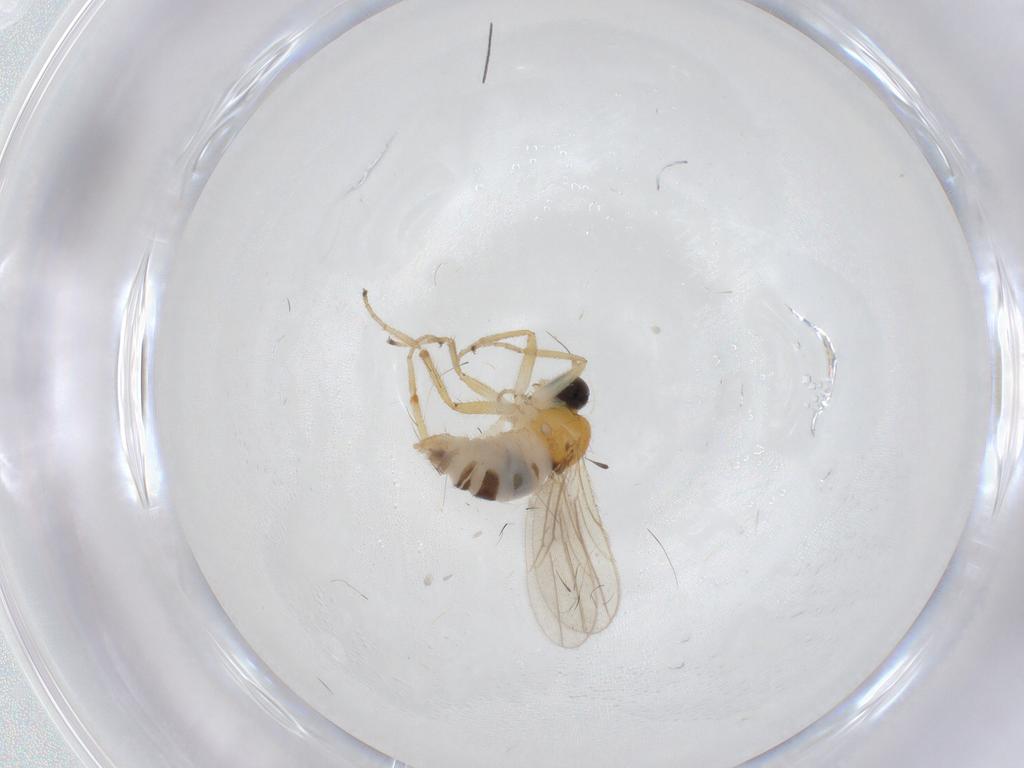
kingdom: Animalia
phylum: Arthropoda
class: Insecta
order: Diptera
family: Hybotidae
